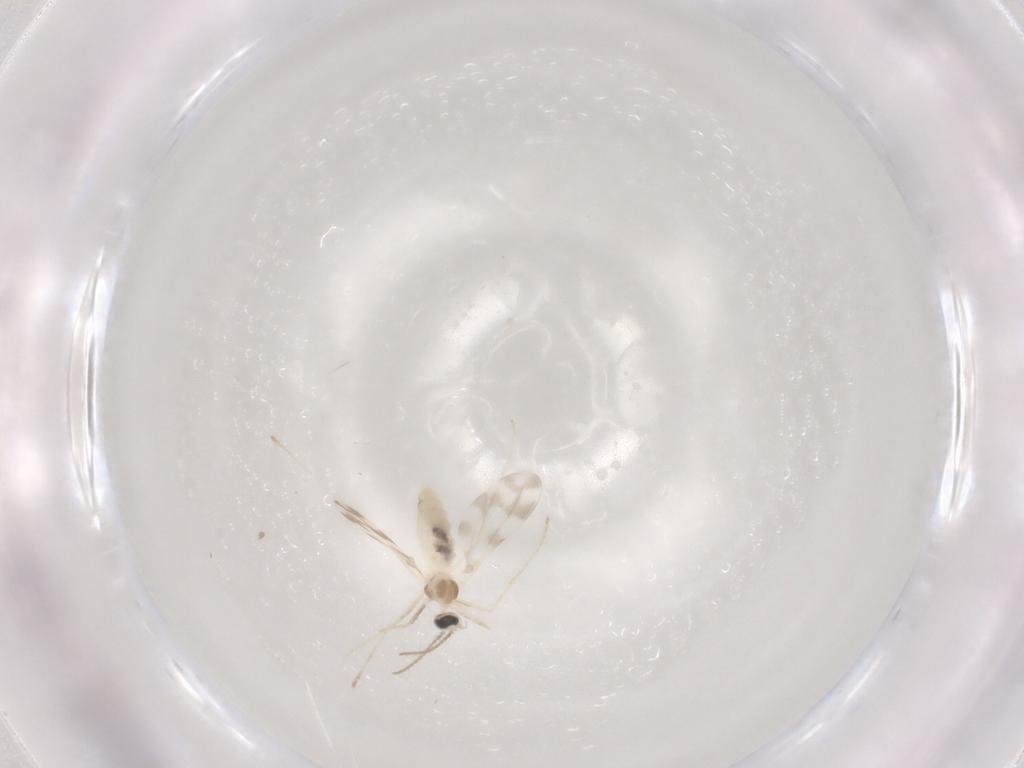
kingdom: Animalia
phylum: Arthropoda
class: Insecta
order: Diptera
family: Cecidomyiidae
